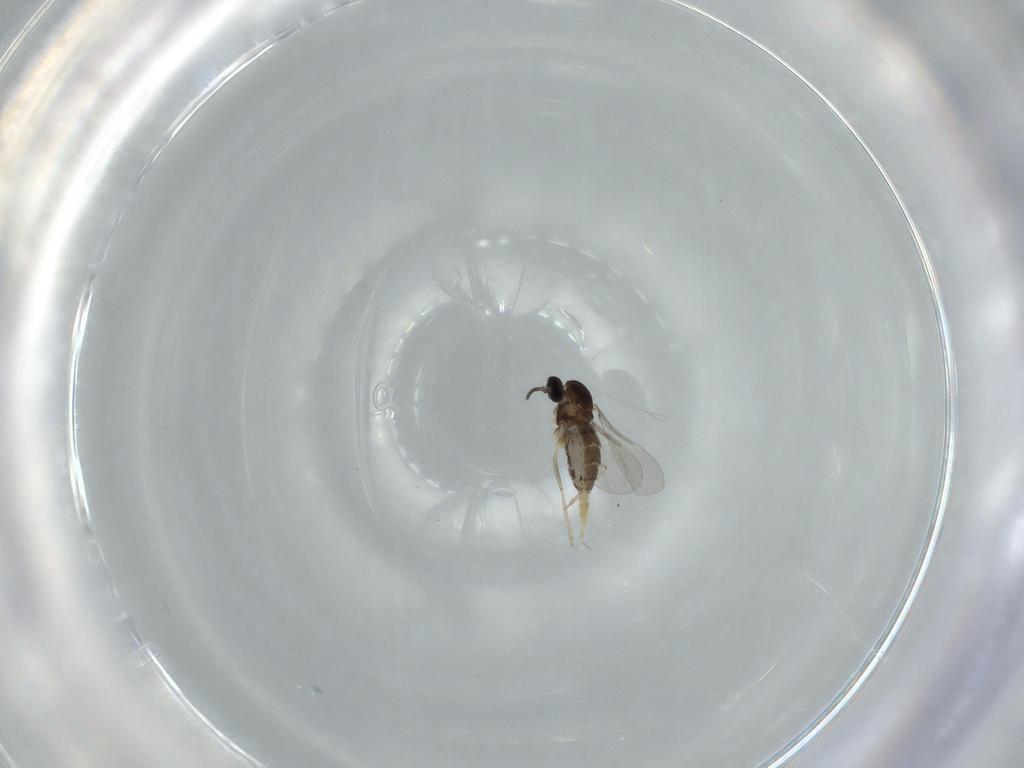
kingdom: Animalia
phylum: Arthropoda
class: Insecta
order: Diptera
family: Cecidomyiidae
